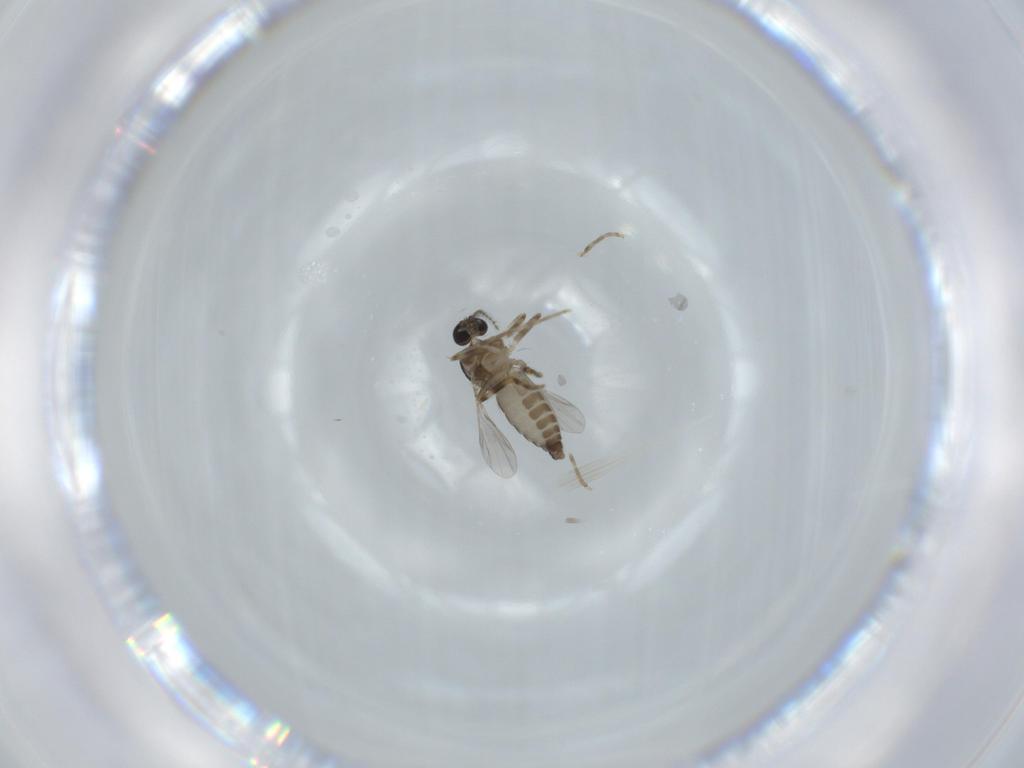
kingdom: Animalia
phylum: Arthropoda
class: Insecta
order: Diptera
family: Ceratopogonidae
